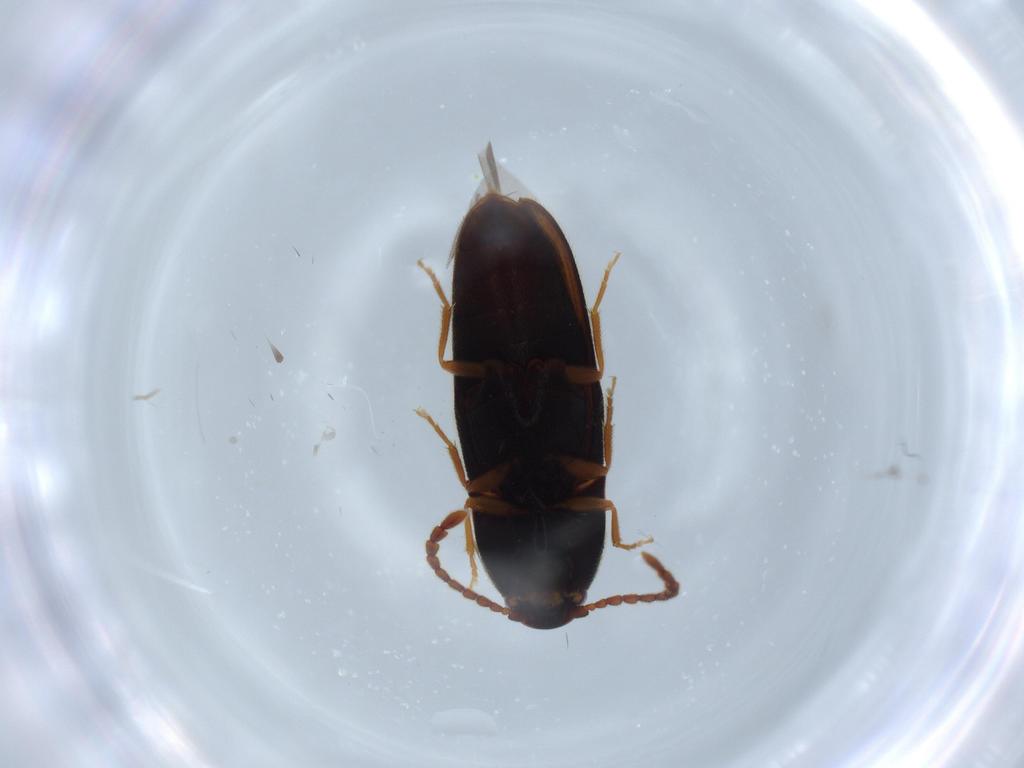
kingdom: Animalia
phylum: Arthropoda
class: Insecta
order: Coleoptera
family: Elateridae
